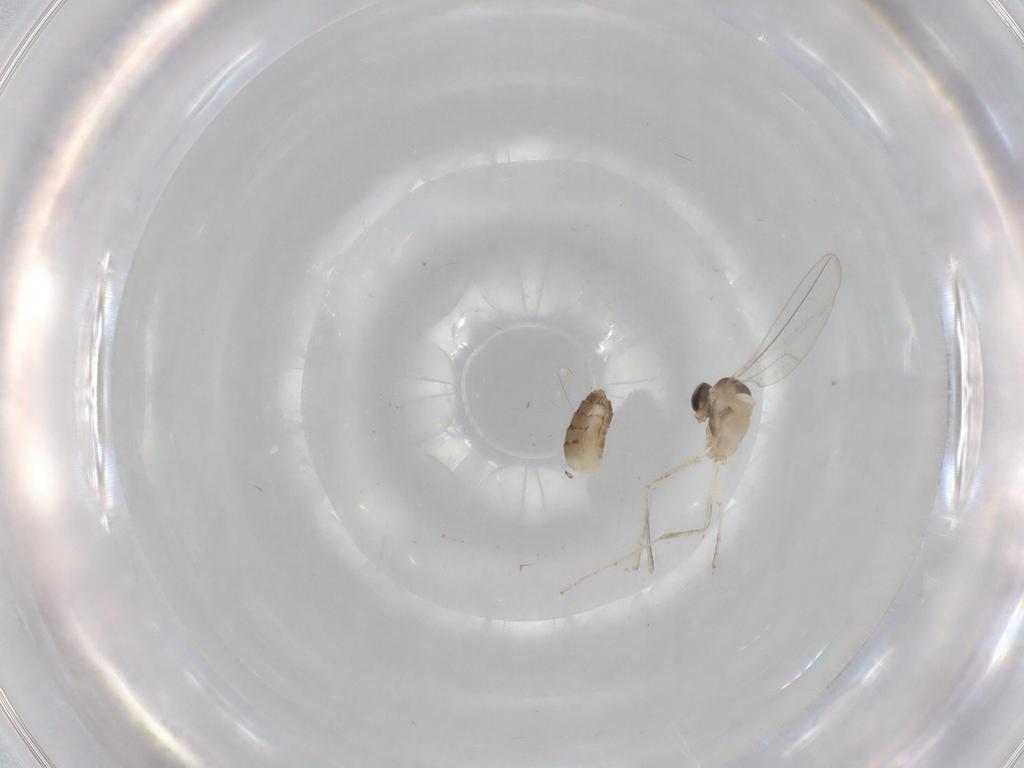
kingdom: Animalia
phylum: Arthropoda
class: Insecta
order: Diptera
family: Cecidomyiidae
